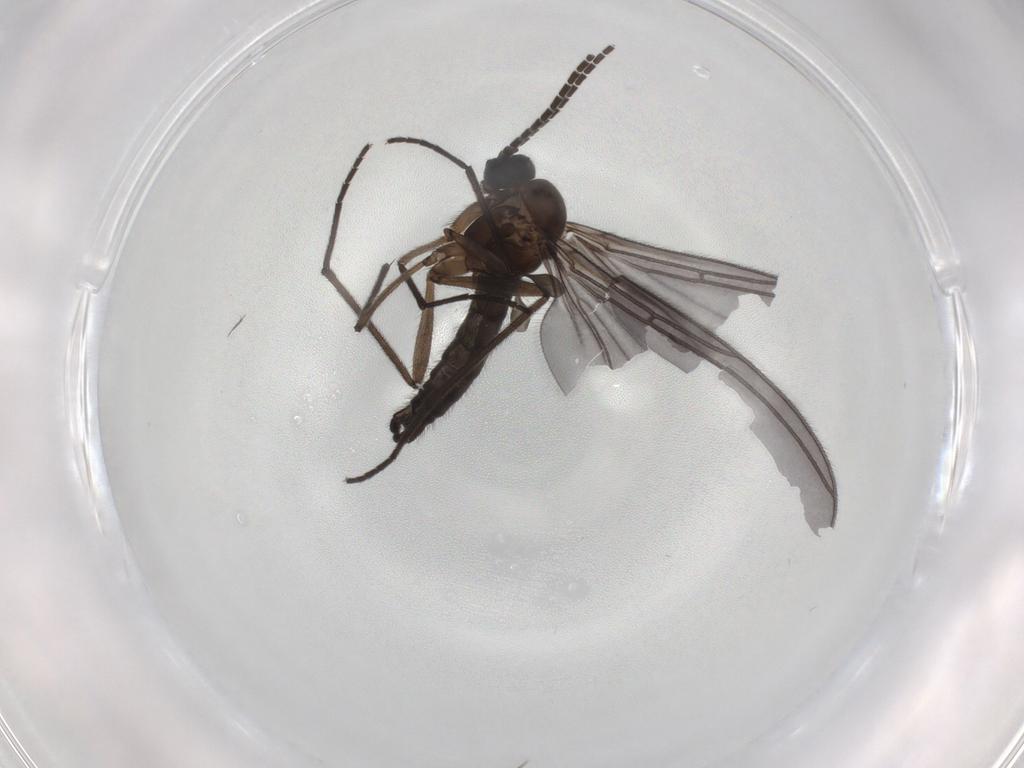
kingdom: Animalia
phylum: Arthropoda
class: Insecta
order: Diptera
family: Sciaridae
